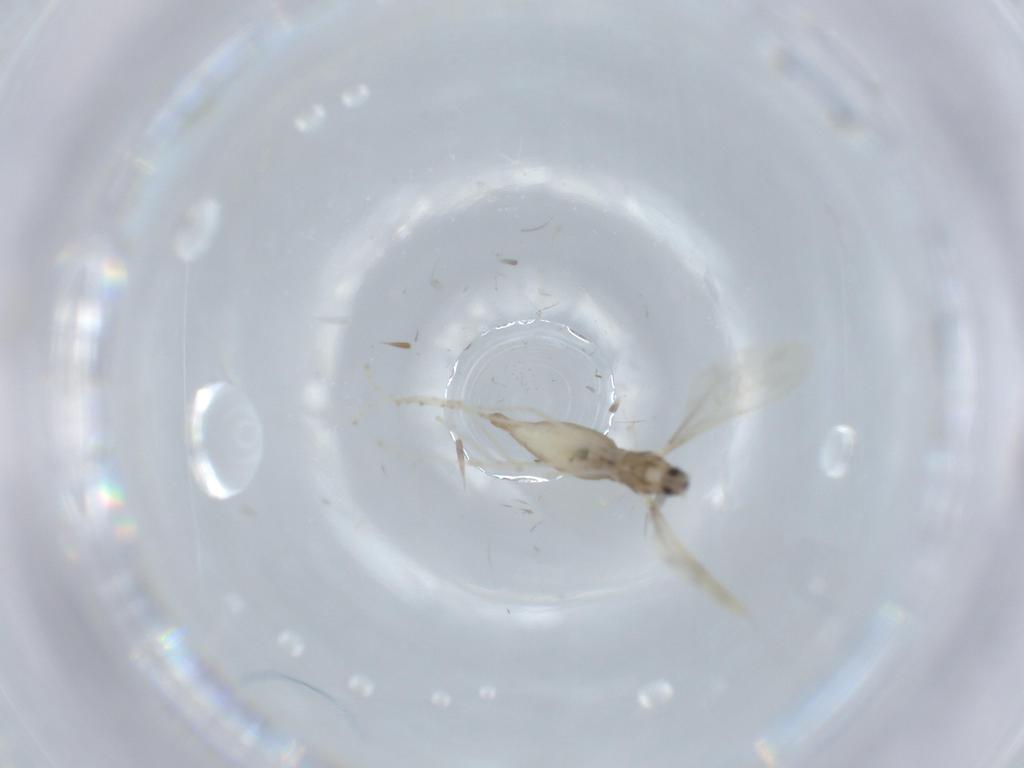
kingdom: Animalia
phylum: Arthropoda
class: Insecta
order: Diptera
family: Cecidomyiidae
